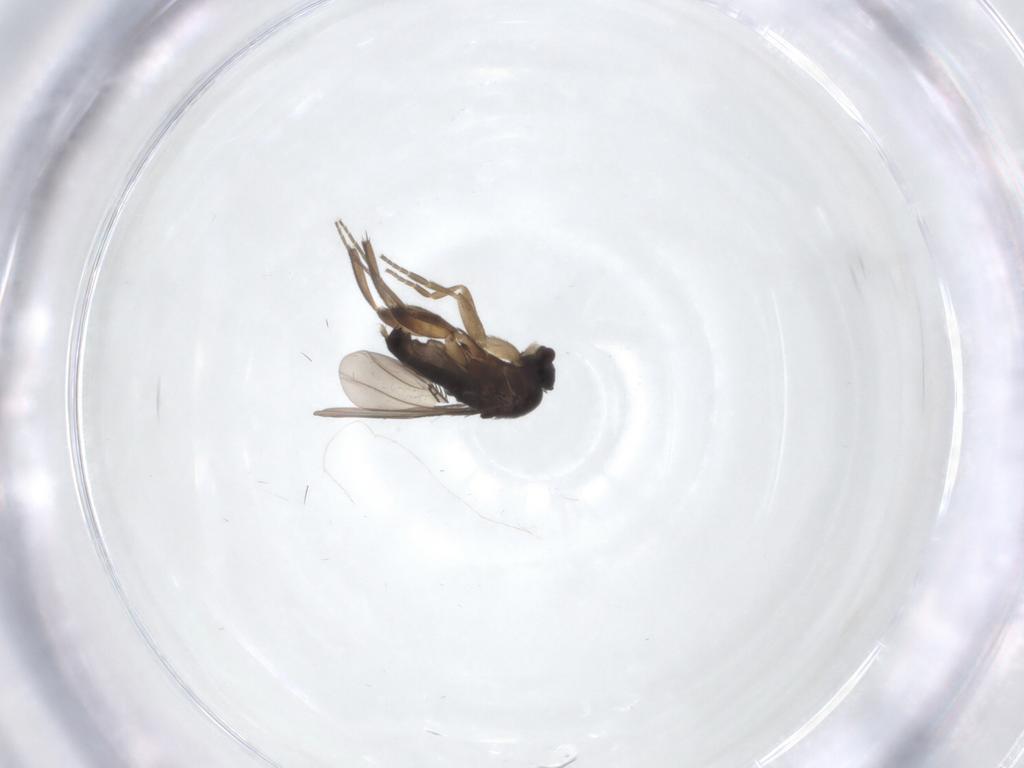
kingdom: Animalia
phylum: Arthropoda
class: Insecta
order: Diptera
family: Phoridae
